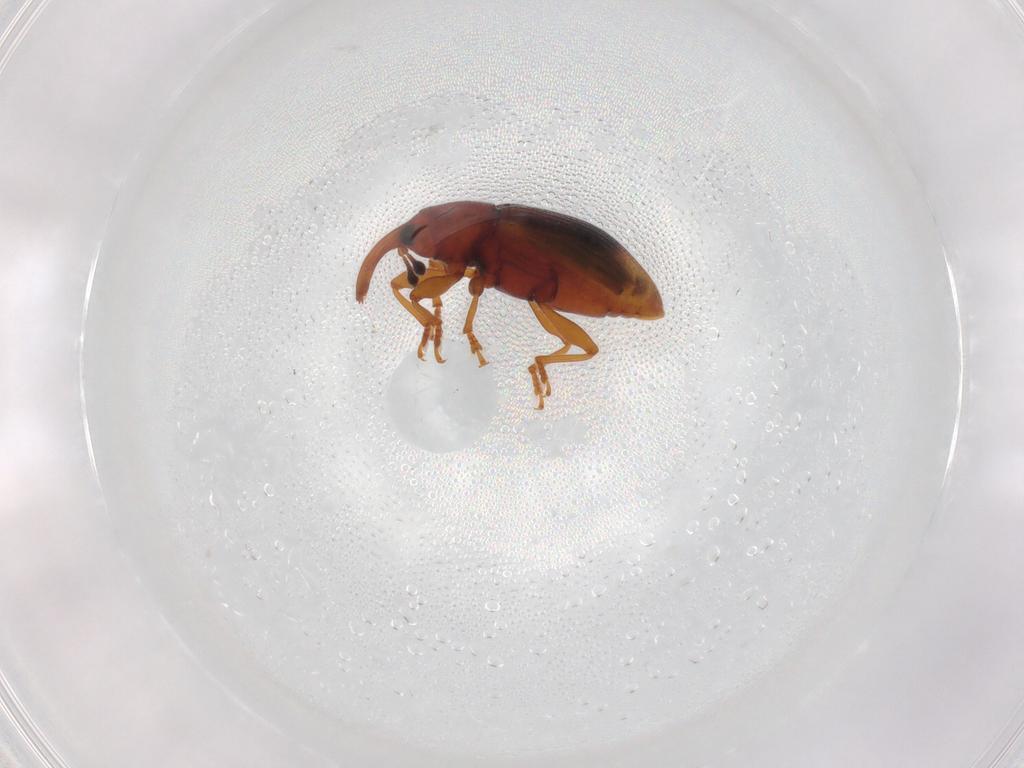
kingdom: Animalia
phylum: Arthropoda
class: Insecta
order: Coleoptera
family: Curculionidae
